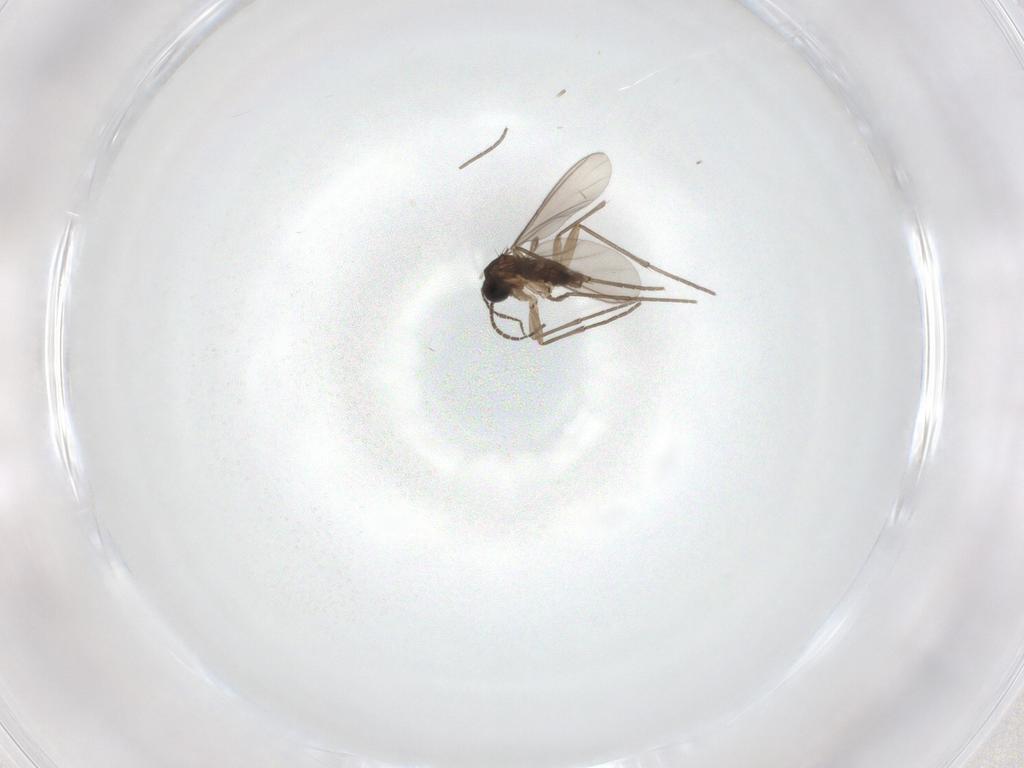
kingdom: Animalia
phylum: Arthropoda
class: Insecta
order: Diptera
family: Sciaridae
